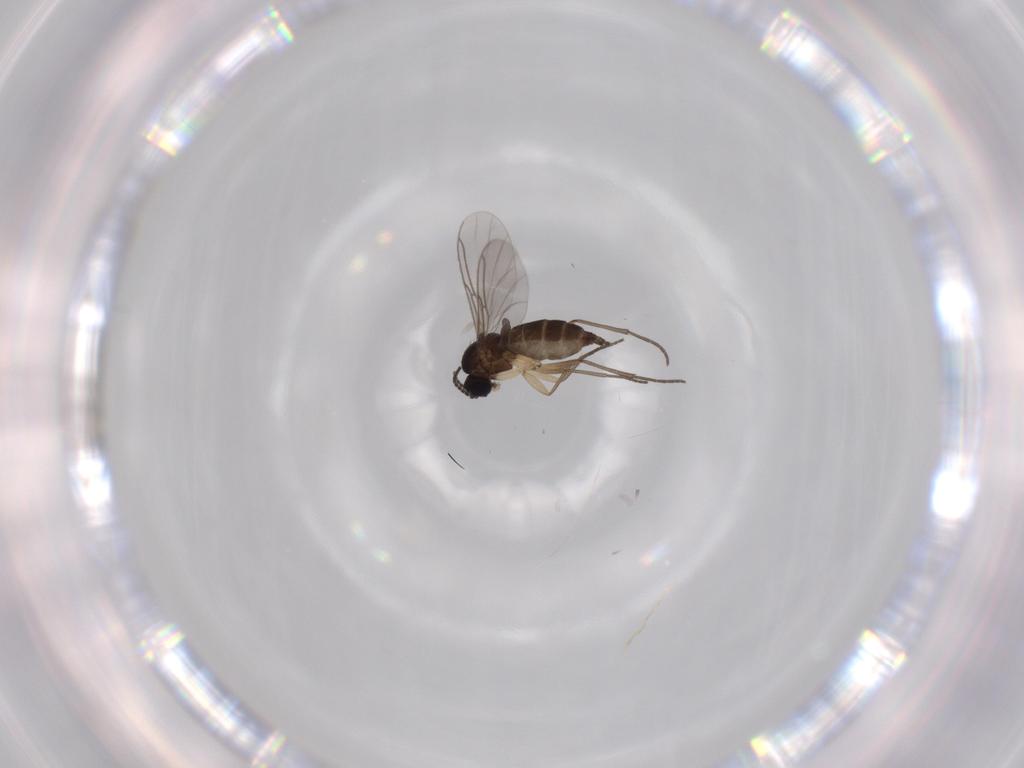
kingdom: Animalia
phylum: Arthropoda
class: Insecta
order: Diptera
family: Sciaridae
